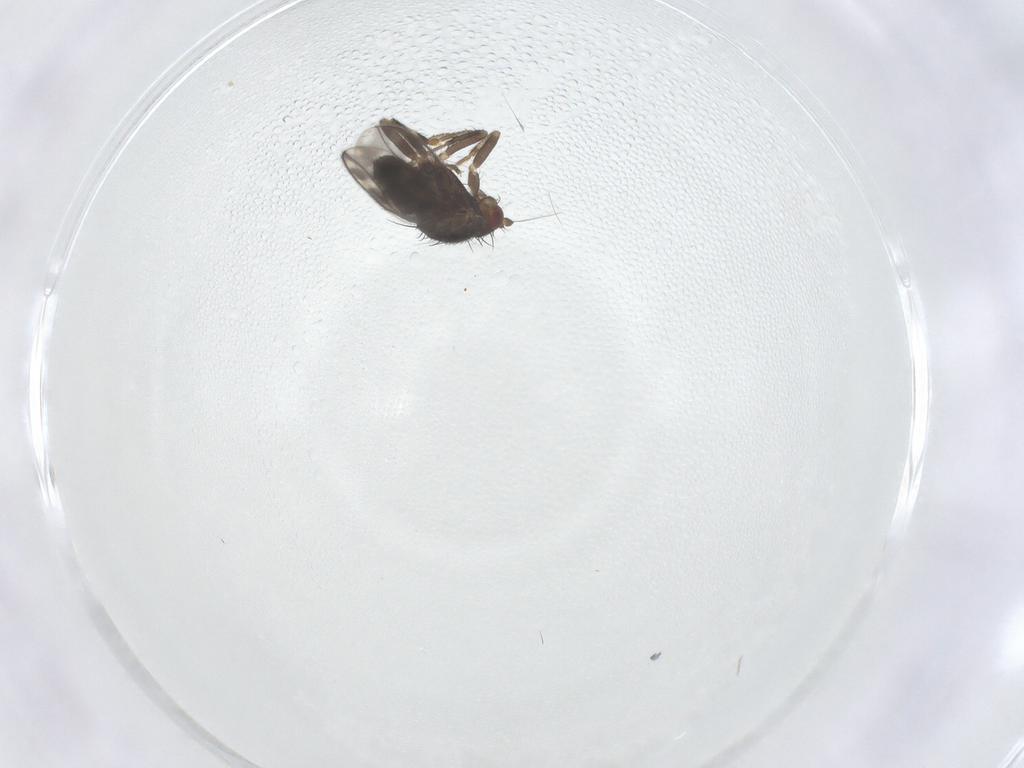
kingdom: Animalia
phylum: Arthropoda
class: Insecta
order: Diptera
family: Sphaeroceridae
